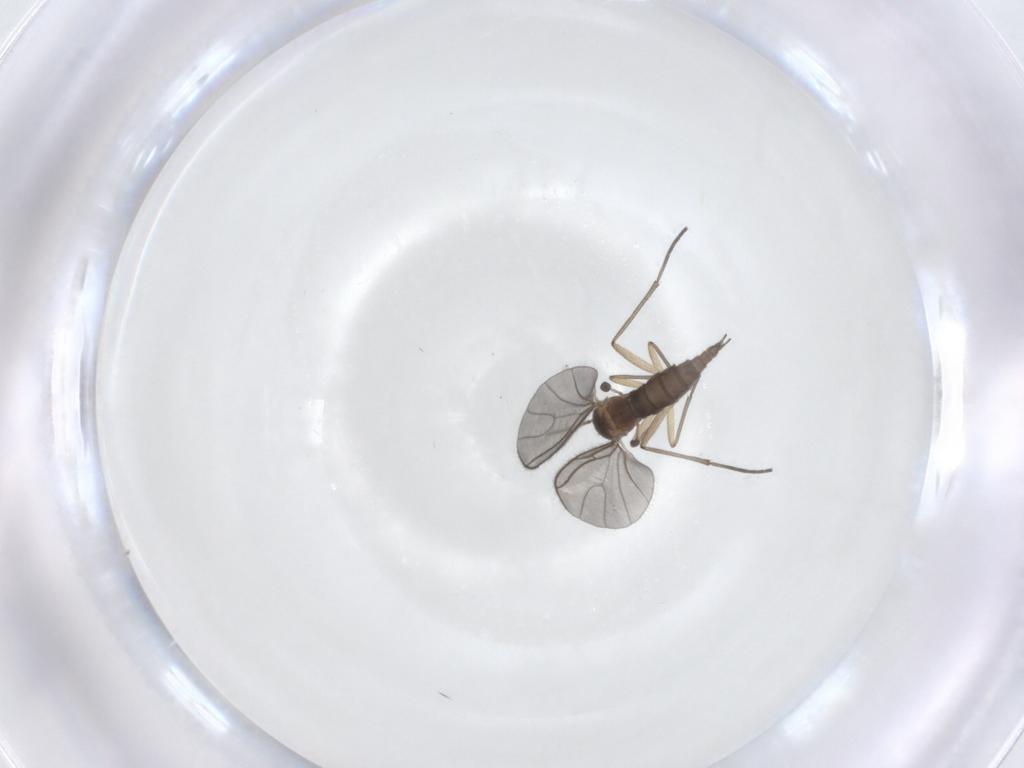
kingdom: Animalia
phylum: Arthropoda
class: Insecta
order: Diptera
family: Sciaridae
